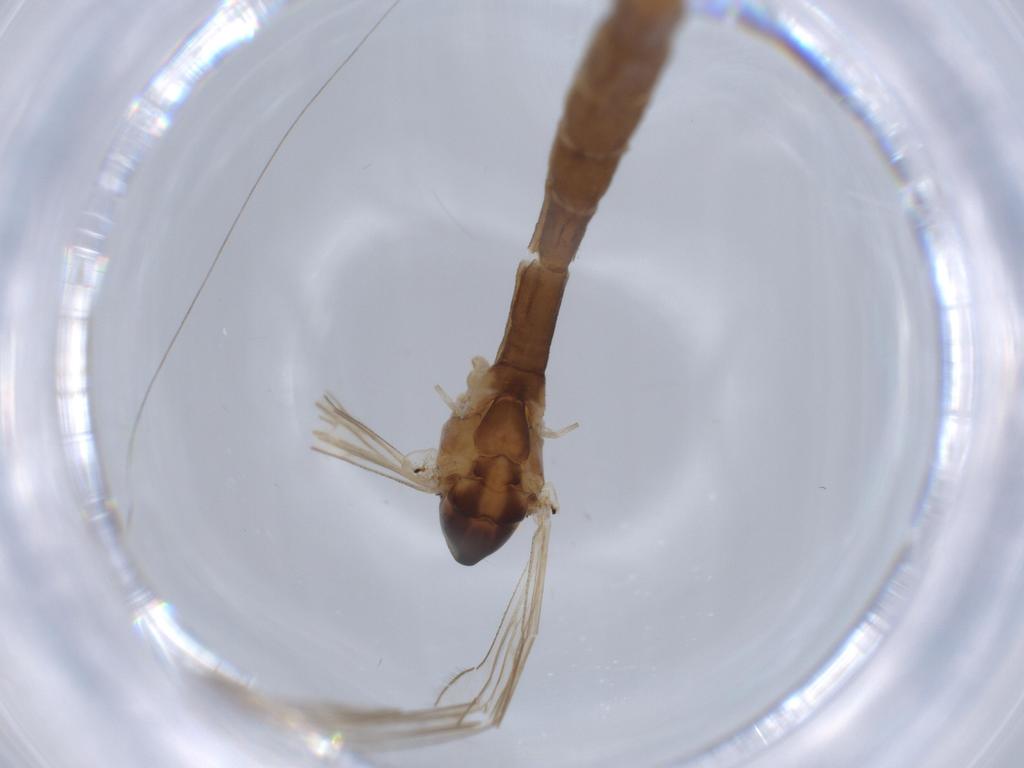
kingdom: Animalia
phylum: Arthropoda
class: Insecta
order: Diptera
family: Limoniidae
